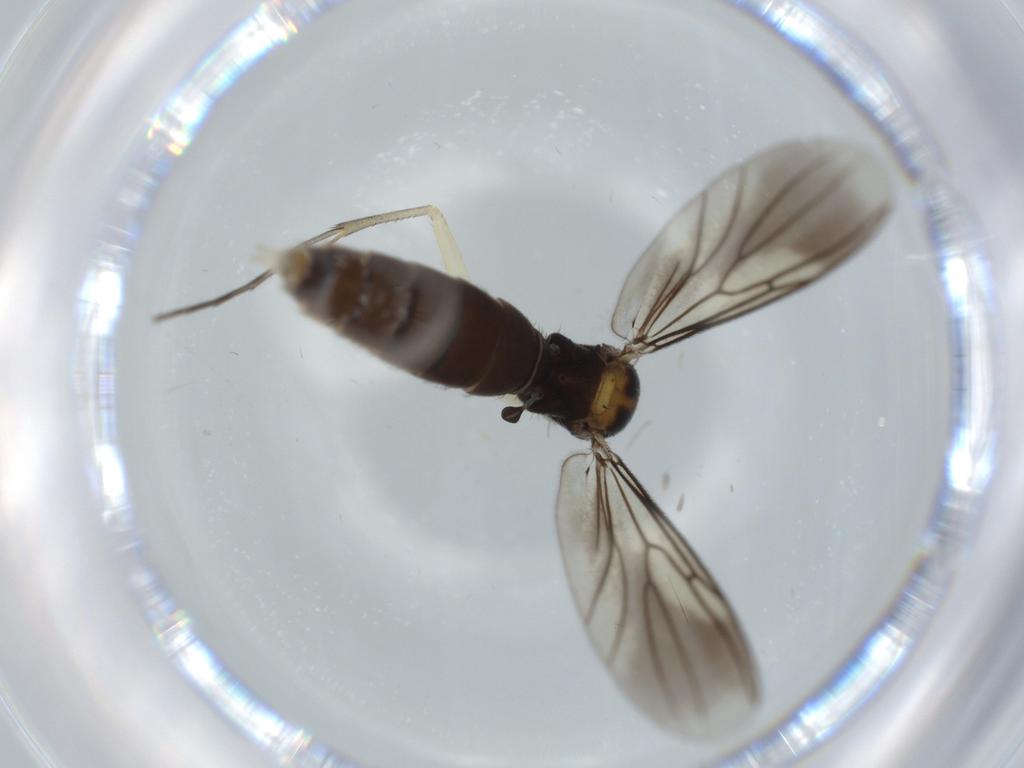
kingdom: Animalia
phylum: Arthropoda
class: Insecta
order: Diptera
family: Mycetophilidae
